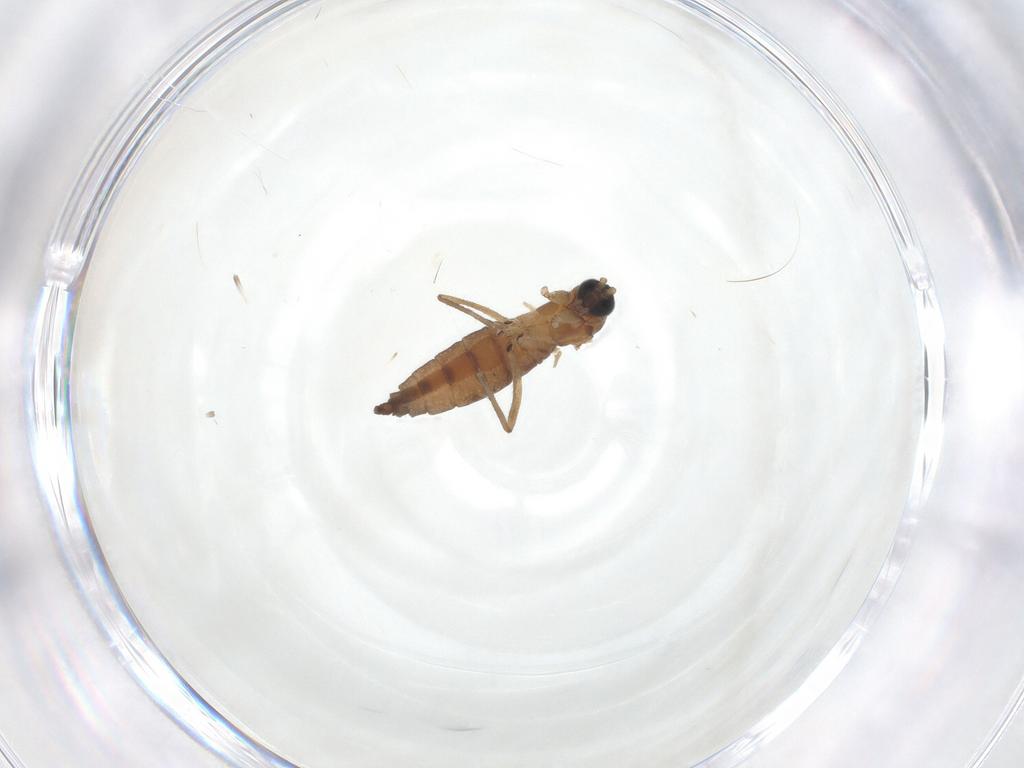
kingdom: Animalia
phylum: Arthropoda
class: Insecta
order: Diptera
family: Sciaridae
